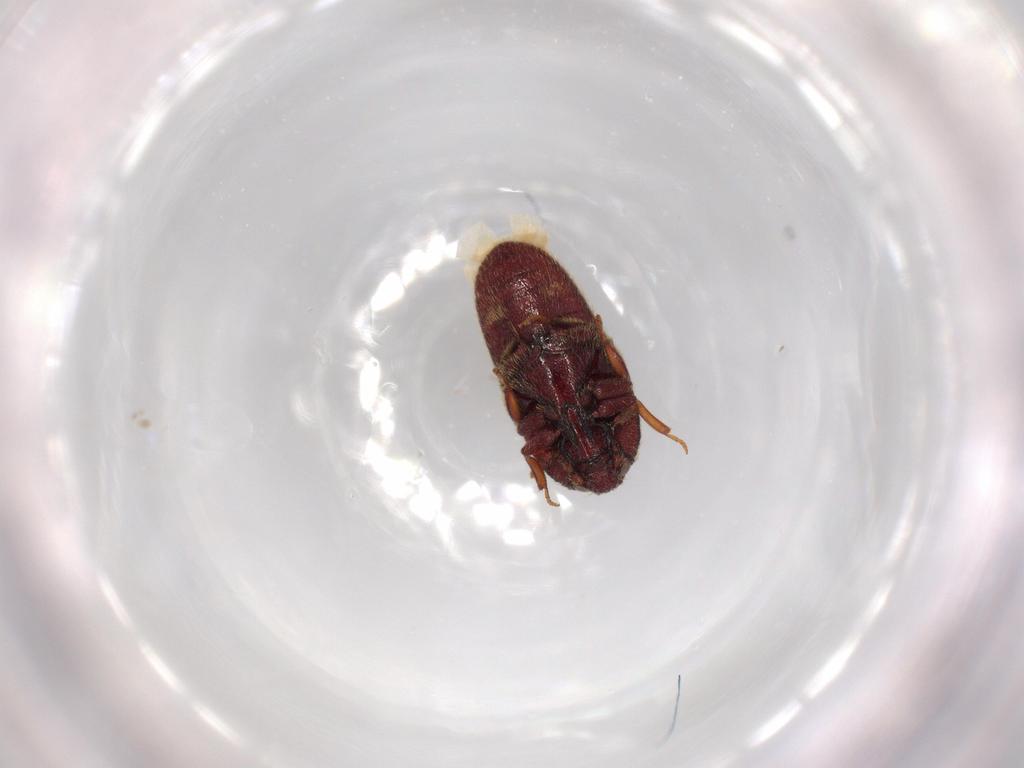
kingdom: Animalia
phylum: Arthropoda
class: Insecta
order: Coleoptera
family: Throscidae
